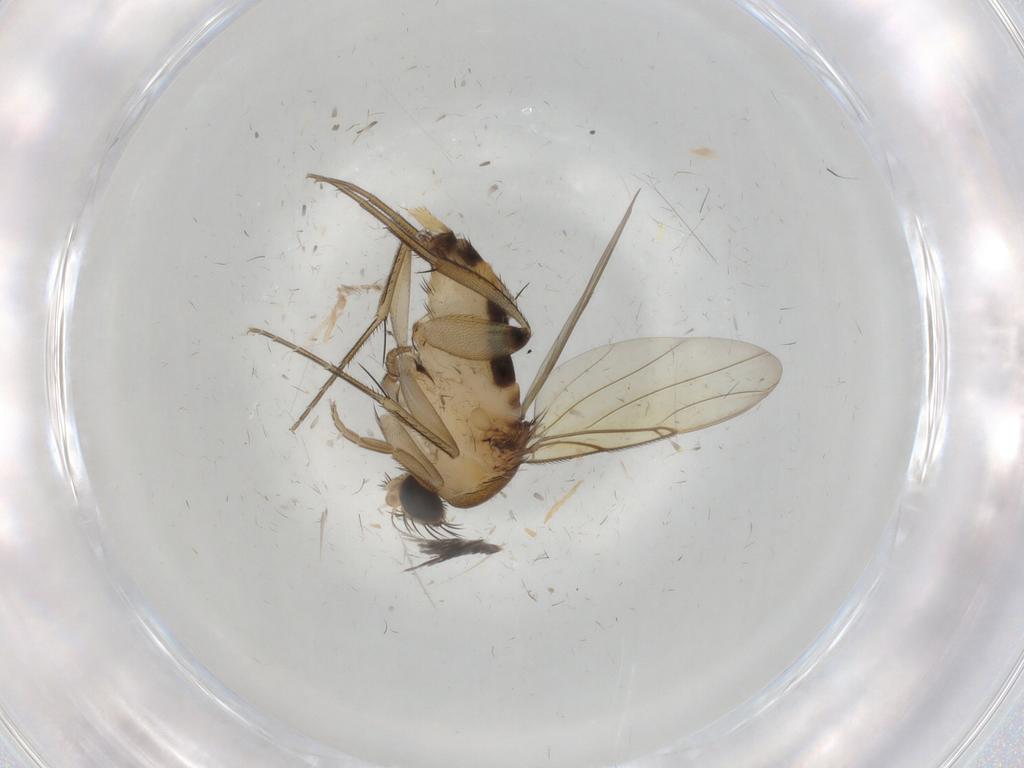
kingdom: Animalia
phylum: Arthropoda
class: Insecta
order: Diptera
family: Phoridae
